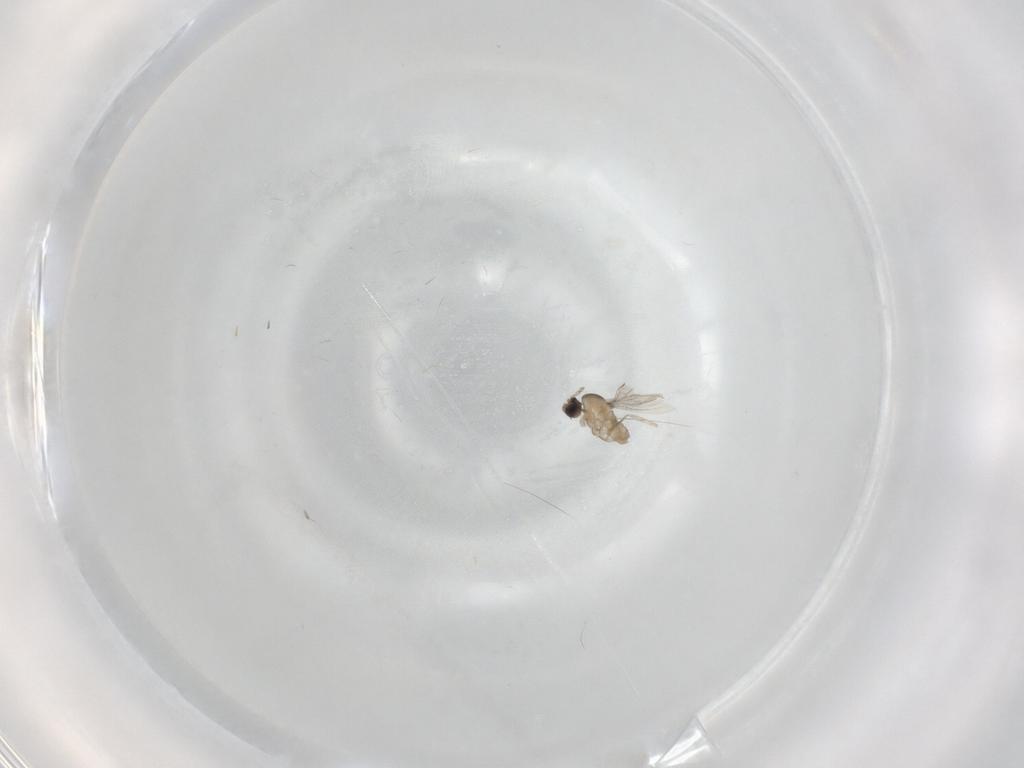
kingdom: Animalia
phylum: Arthropoda
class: Insecta
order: Diptera
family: Cecidomyiidae
